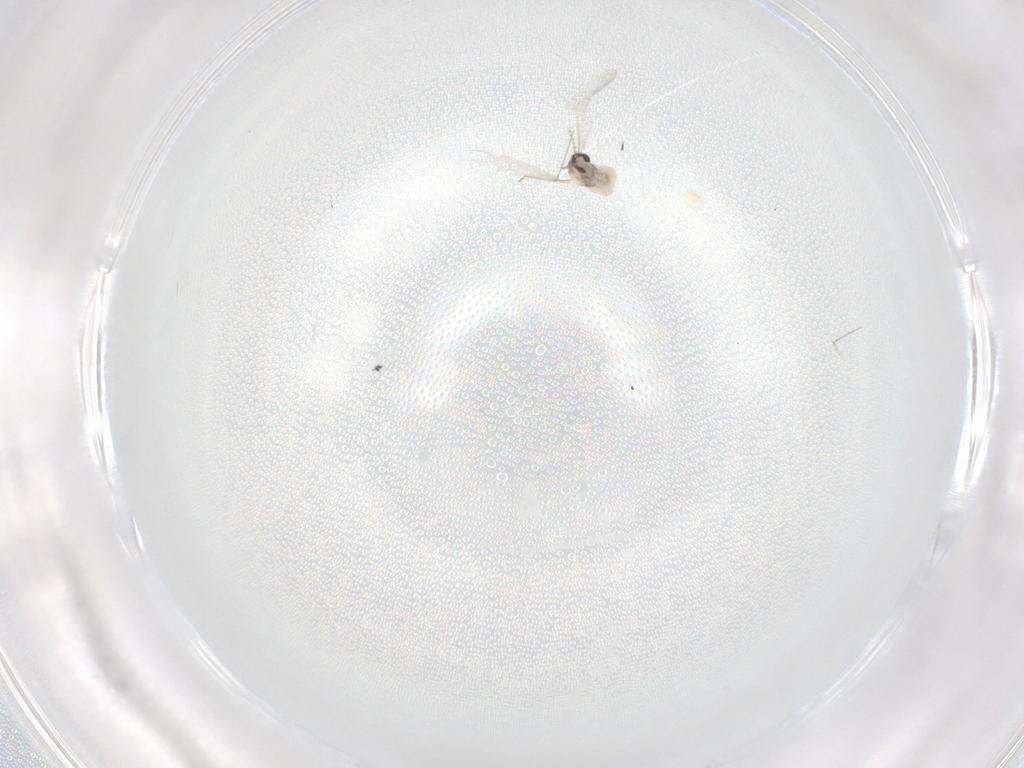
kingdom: Animalia
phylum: Arthropoda
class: Insecta
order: Diptera
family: Cecidomyiidae
